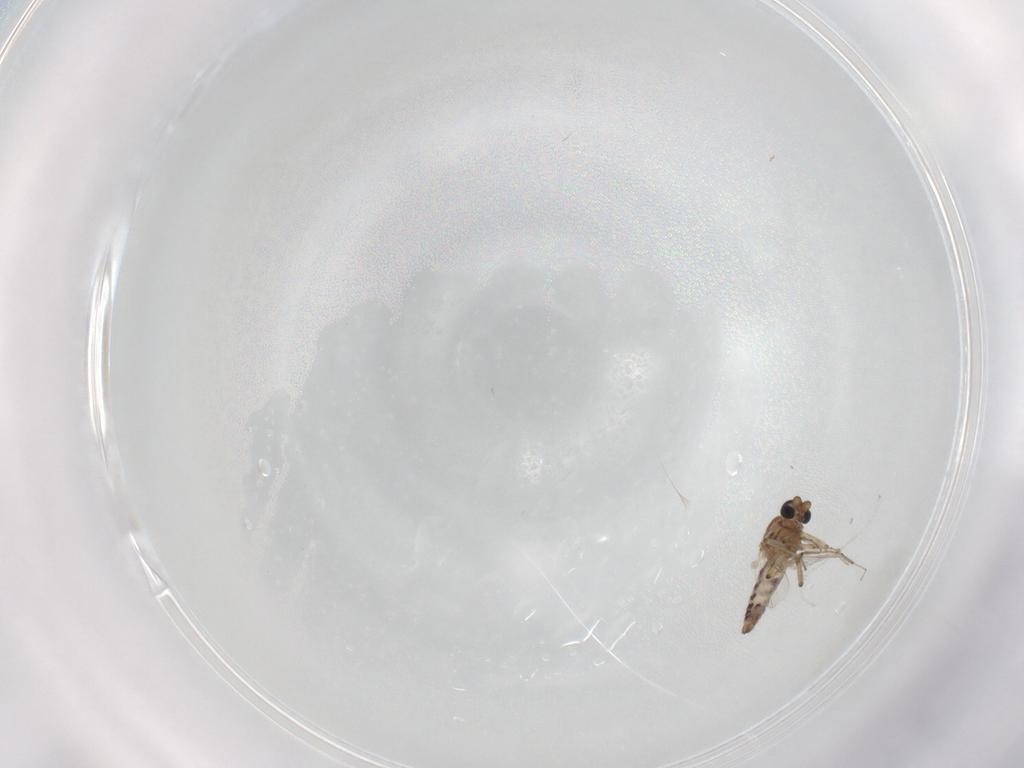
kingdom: Animalia
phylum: Arthropoda
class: Insecta
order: Diptera
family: Ceratopogonidae
